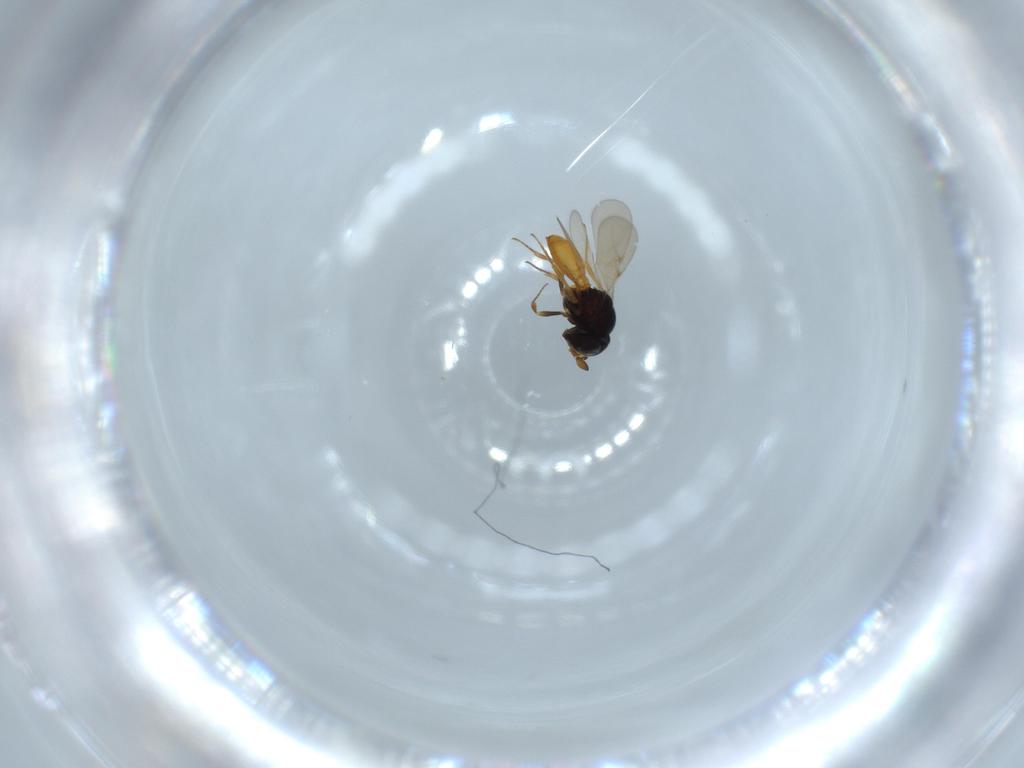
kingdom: Animalia
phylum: Arthropoda
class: Insecta
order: Hymenoptera
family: Scelionidae
